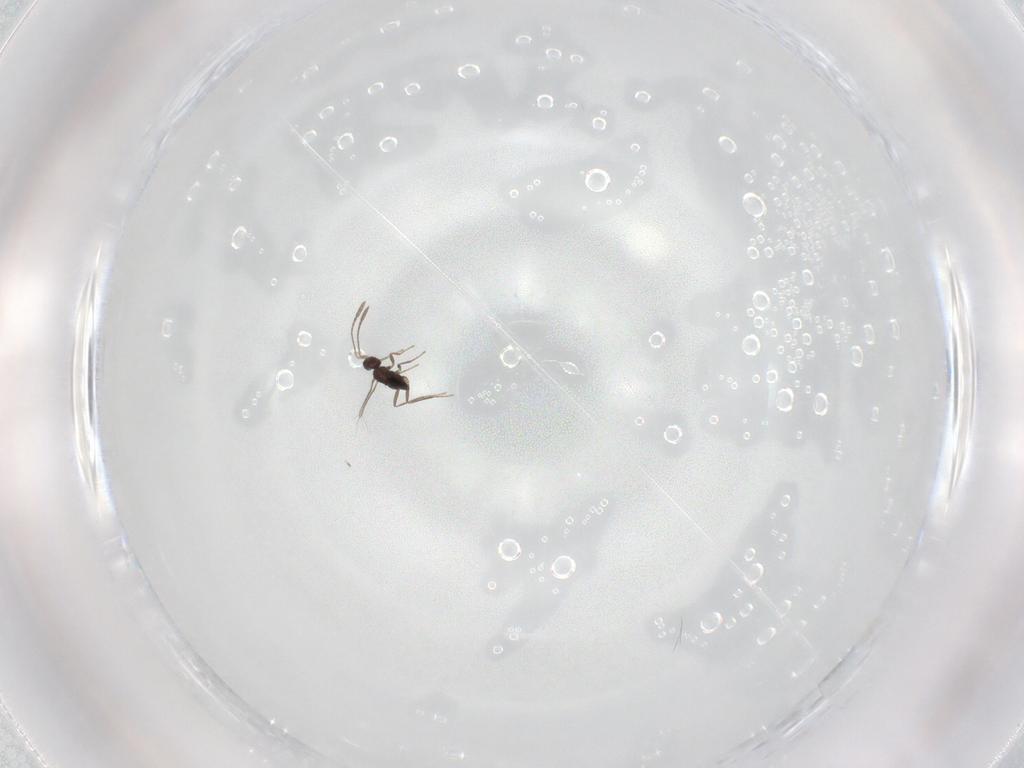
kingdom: Animalia
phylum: Arthropoda
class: Insecta
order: Hymenoptera
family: Mymaridae
